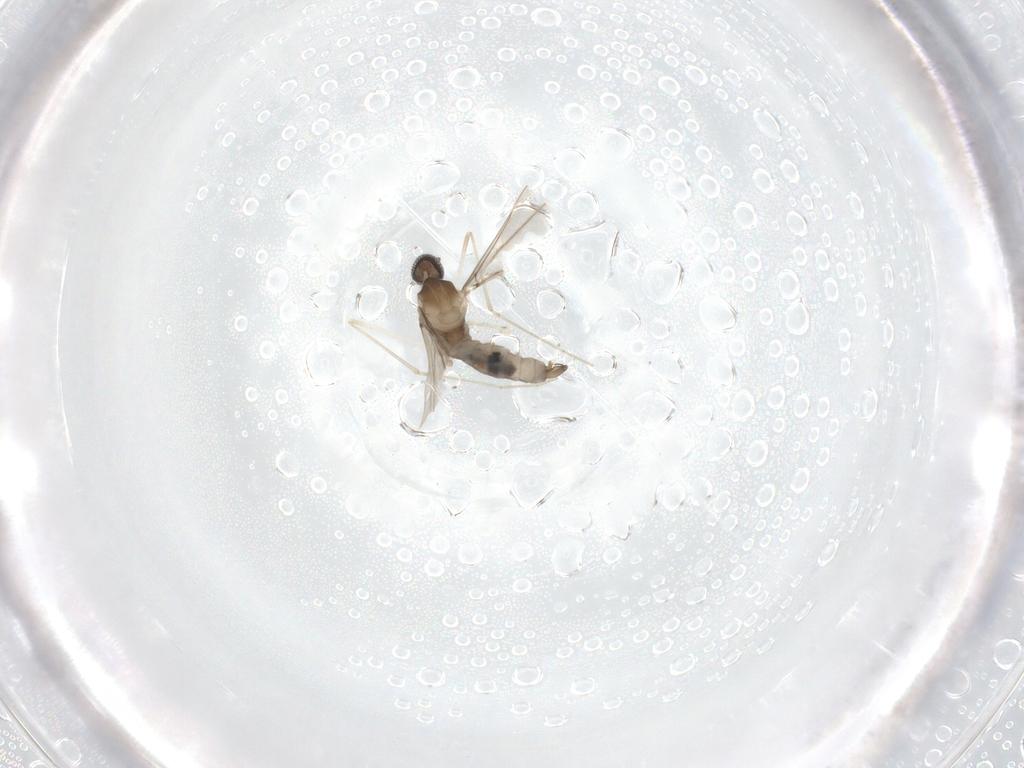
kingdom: Animalia
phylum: Arthropoda
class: Insecta
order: Diptera
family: Cecidomyiidae
